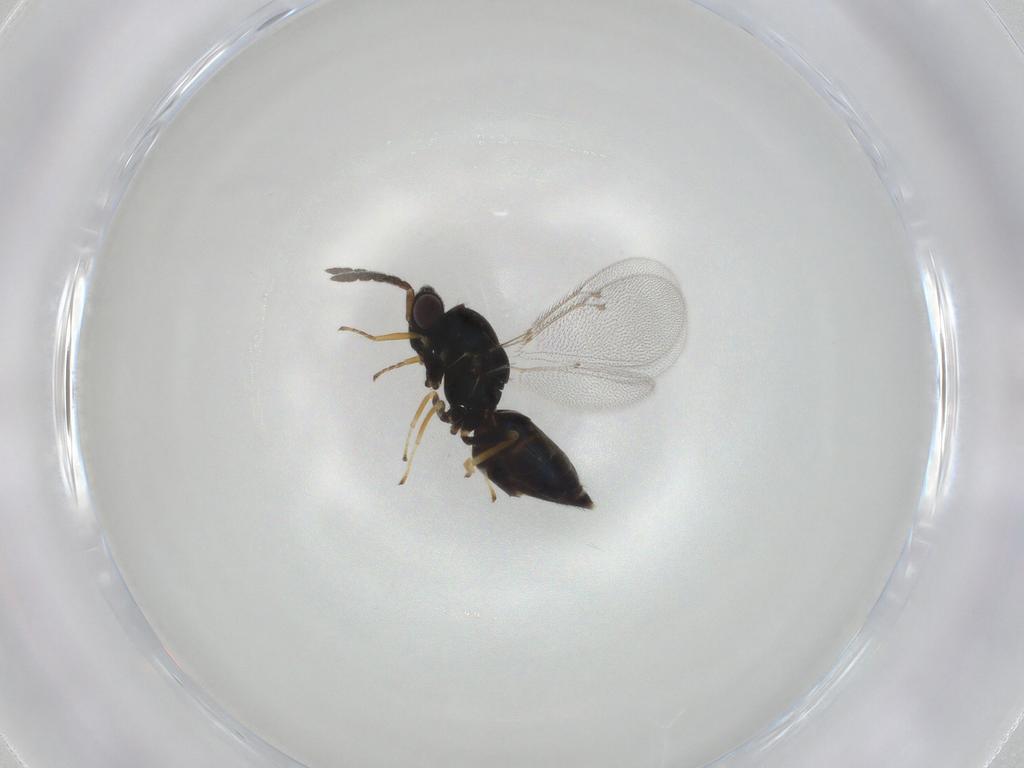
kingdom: Animalia
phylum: Arthropoda
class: Insecta
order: Hymenoptera
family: Eulophidae
